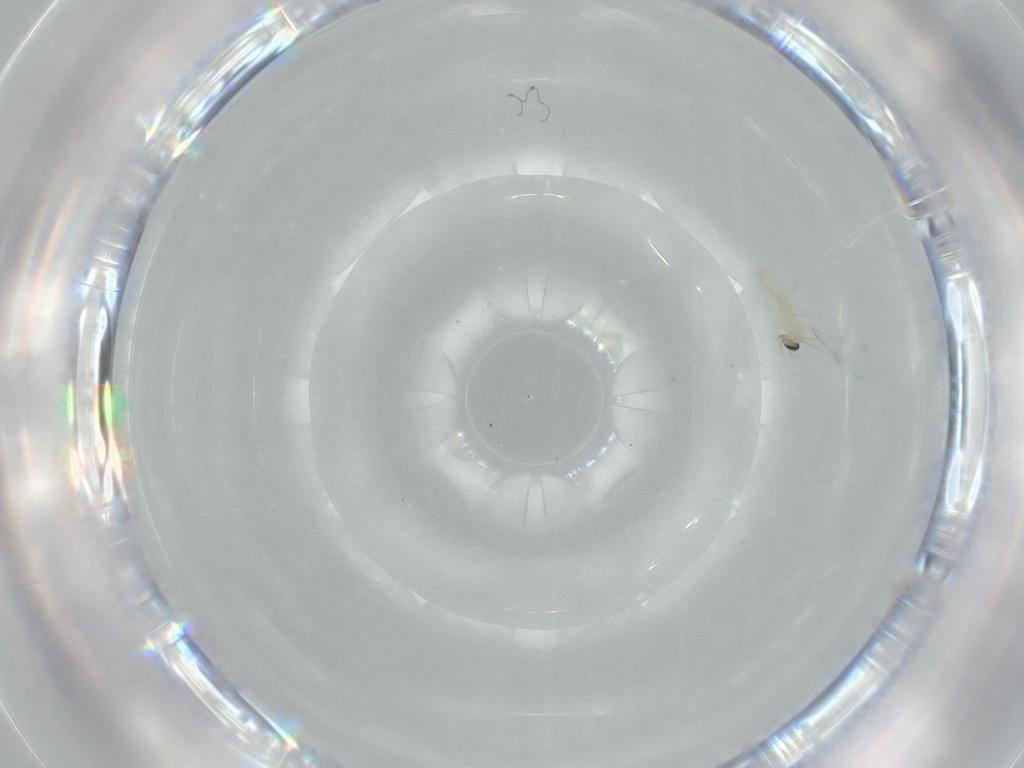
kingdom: Animalia
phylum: Arthropoda
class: Insecta
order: Diptera
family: Cecidomyiidae
